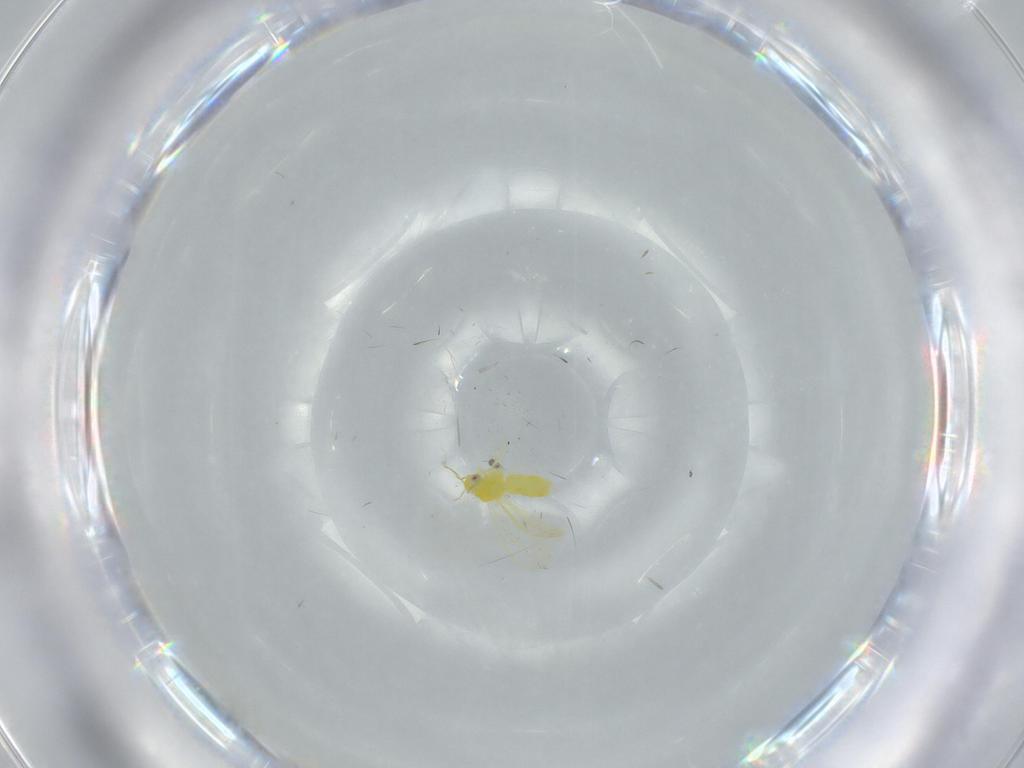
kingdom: Animalia
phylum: Arthropoda
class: Insecta
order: Hemiptera
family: Aleyrodidae
